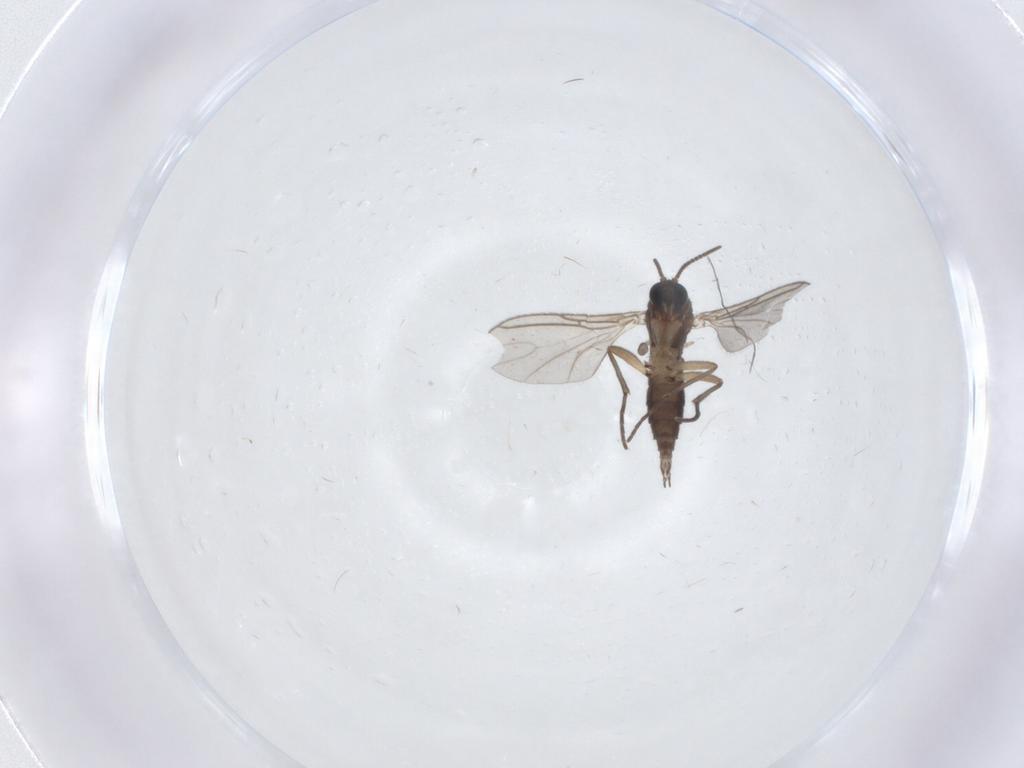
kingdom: Animalia
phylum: Arthropoda
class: Insecta
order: Diptera
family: Sciaridae
